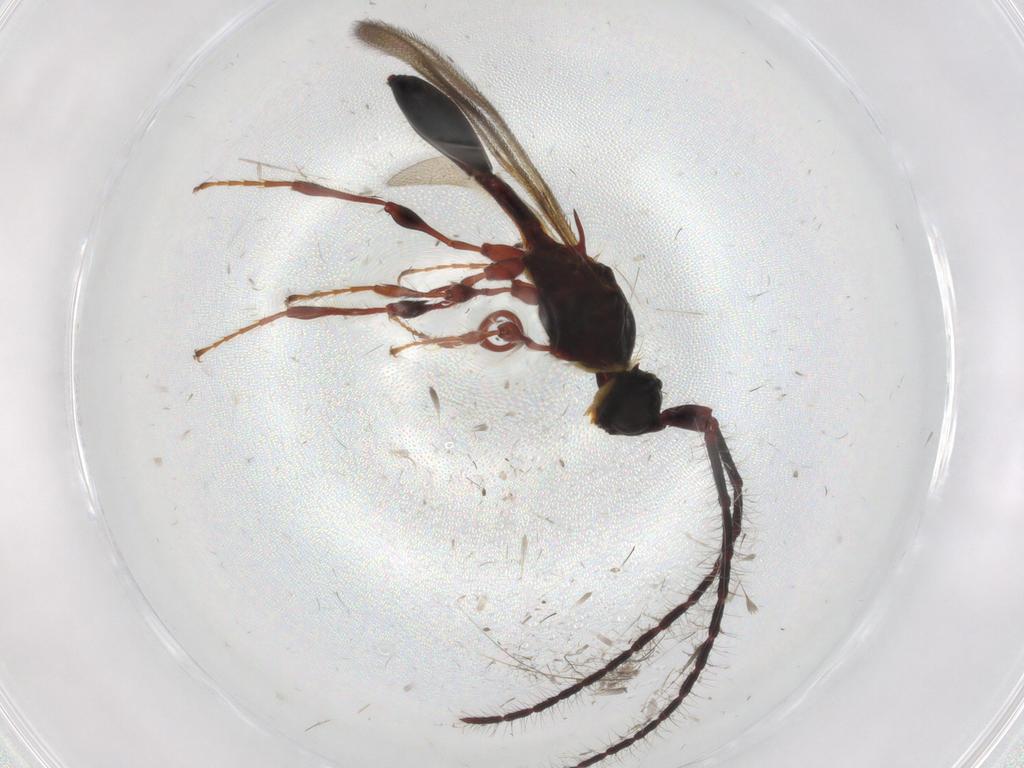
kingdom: Animalia
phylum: Arthropoda
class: Insecta
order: Hymenoptera
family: Diapriidae
